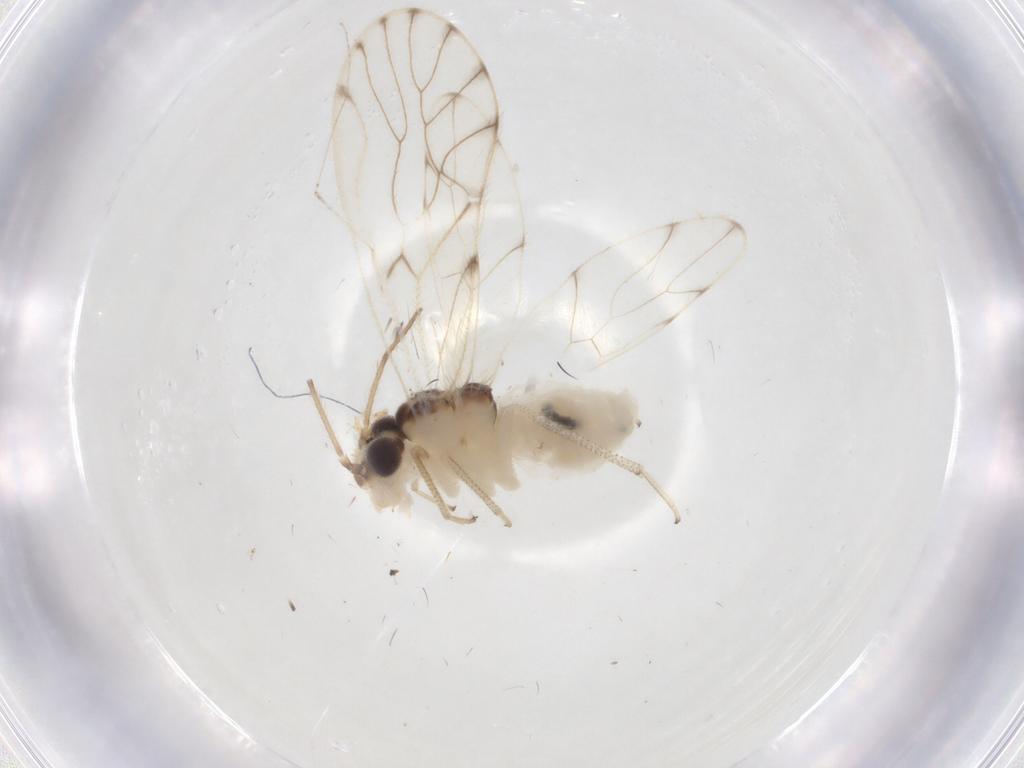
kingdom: Animalia
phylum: Arthropoda
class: Insecta
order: Psocodea
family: Philotarsidae
